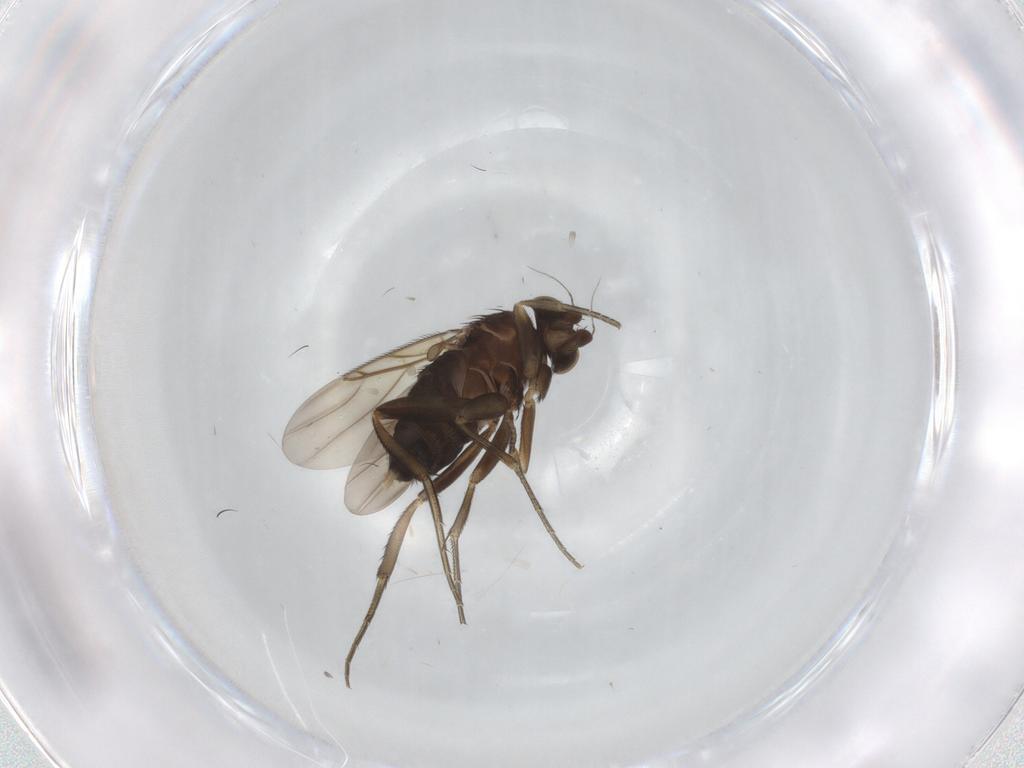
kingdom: Animalia
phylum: Arthropoda
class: Insecta
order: Diptera
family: Phoridae
